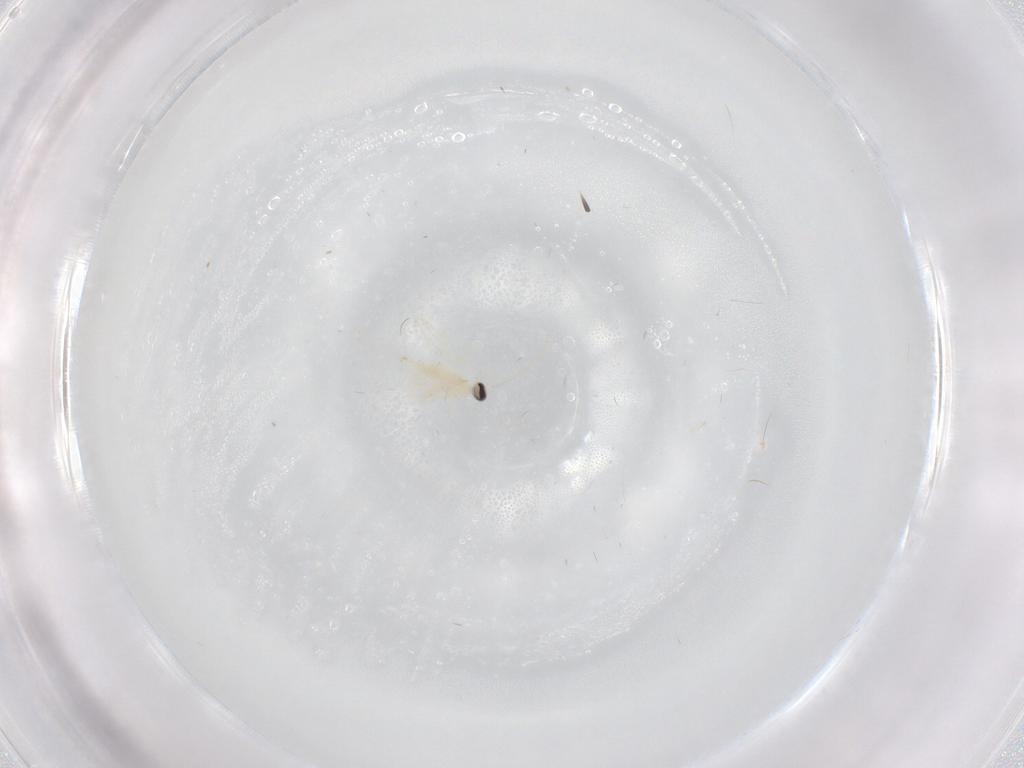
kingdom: Animalia
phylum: Arthropoda
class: Insecta
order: Diptera
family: Cecidomyiidae
